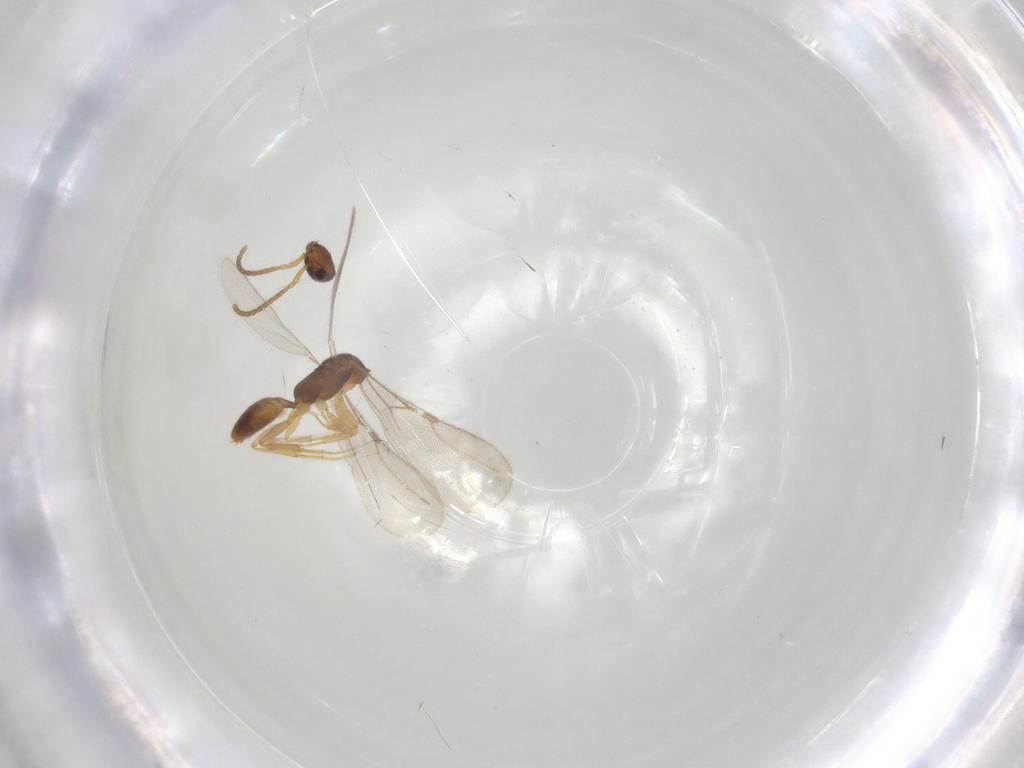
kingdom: Animalia
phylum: Arthropoda
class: Insecta
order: Hymenoptera
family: Bethylidae
